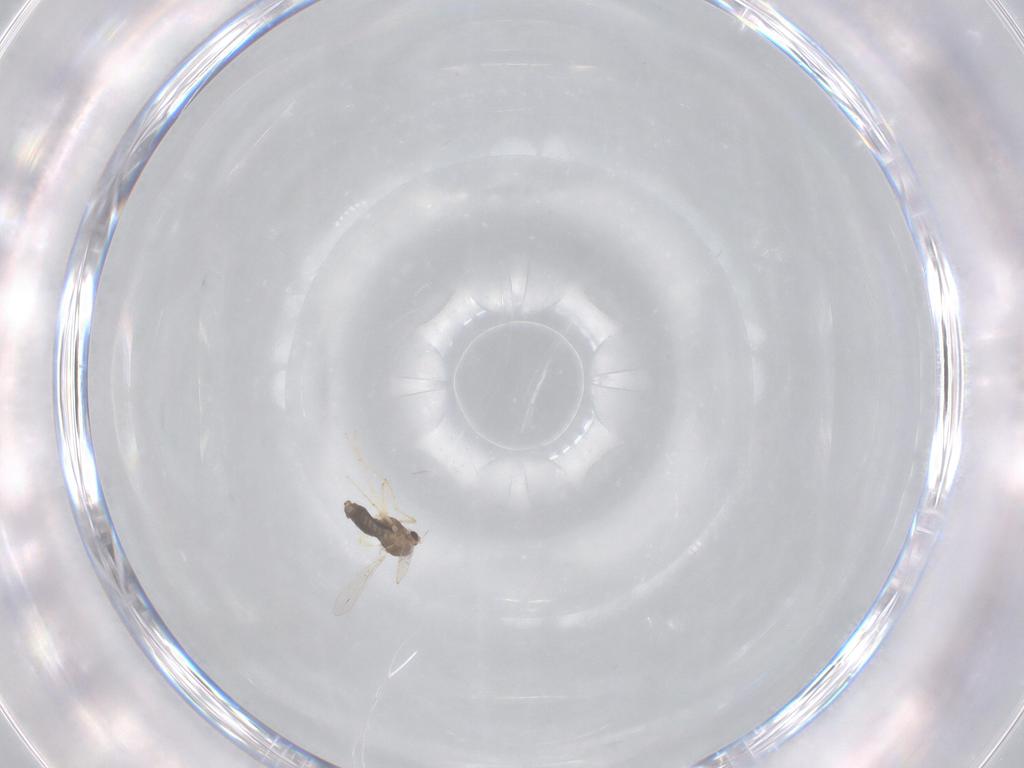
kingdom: Animalia
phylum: Arthropoda
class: Insecta
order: Diptera
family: Chironomidae
